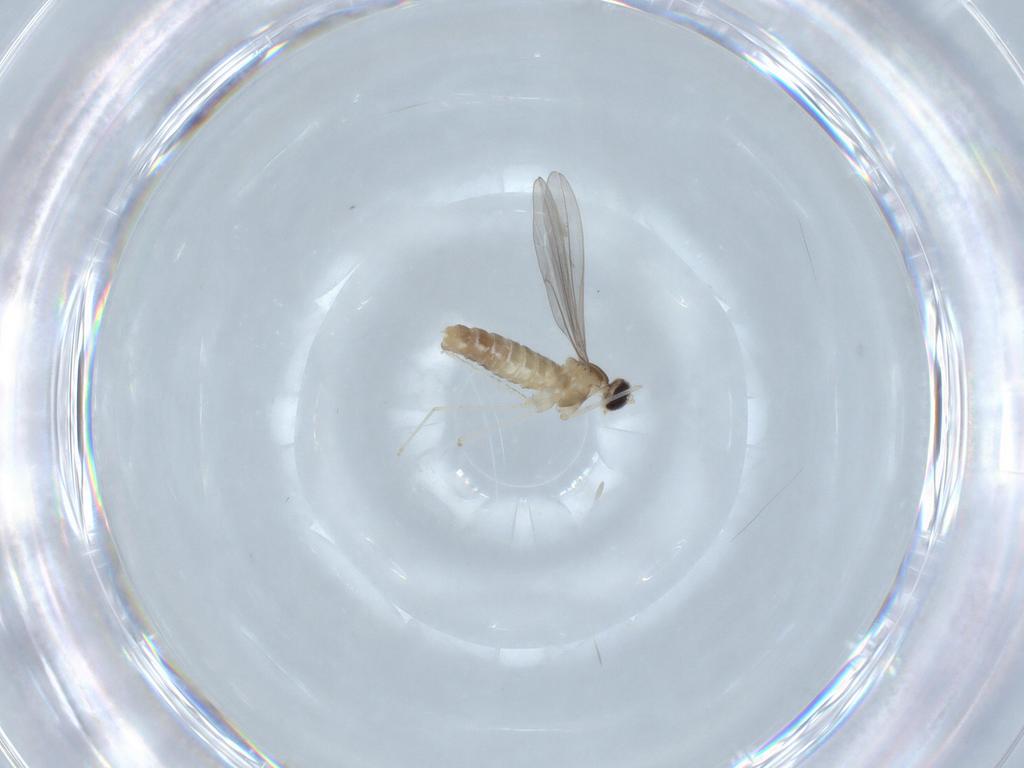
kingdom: Animalia
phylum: Arthropoda
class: Insecta
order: Diptera
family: Cecidomyiidae
